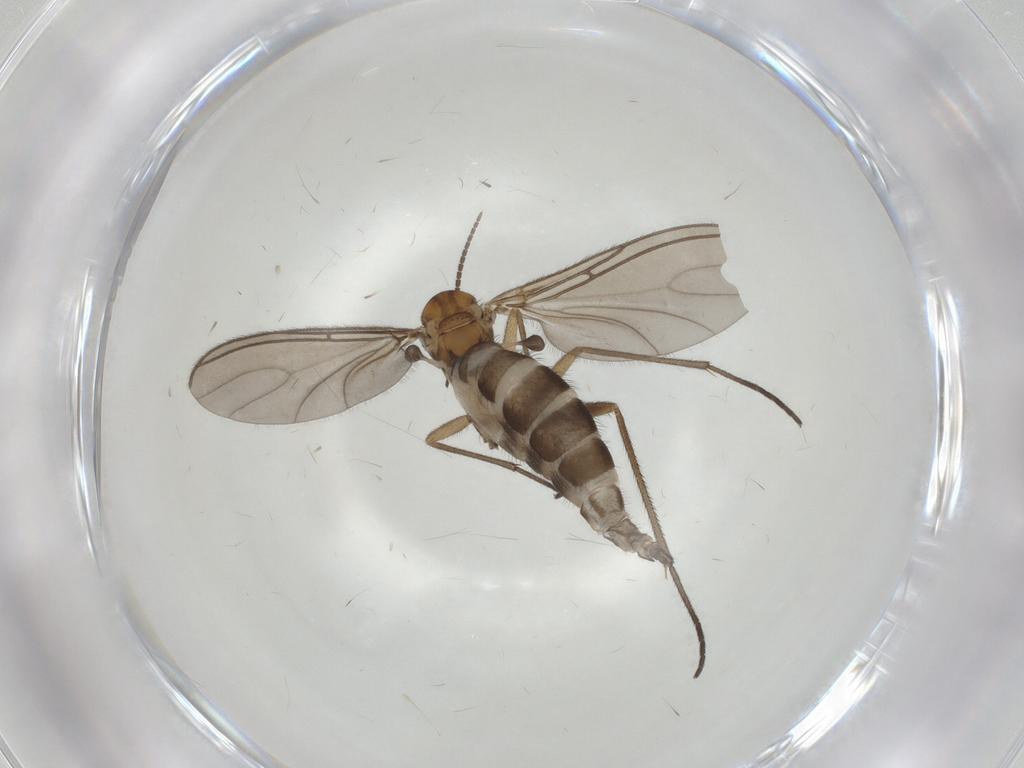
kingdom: Animalia
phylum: Arthropoda
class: Insecta
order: Diptera
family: Sciaridae
